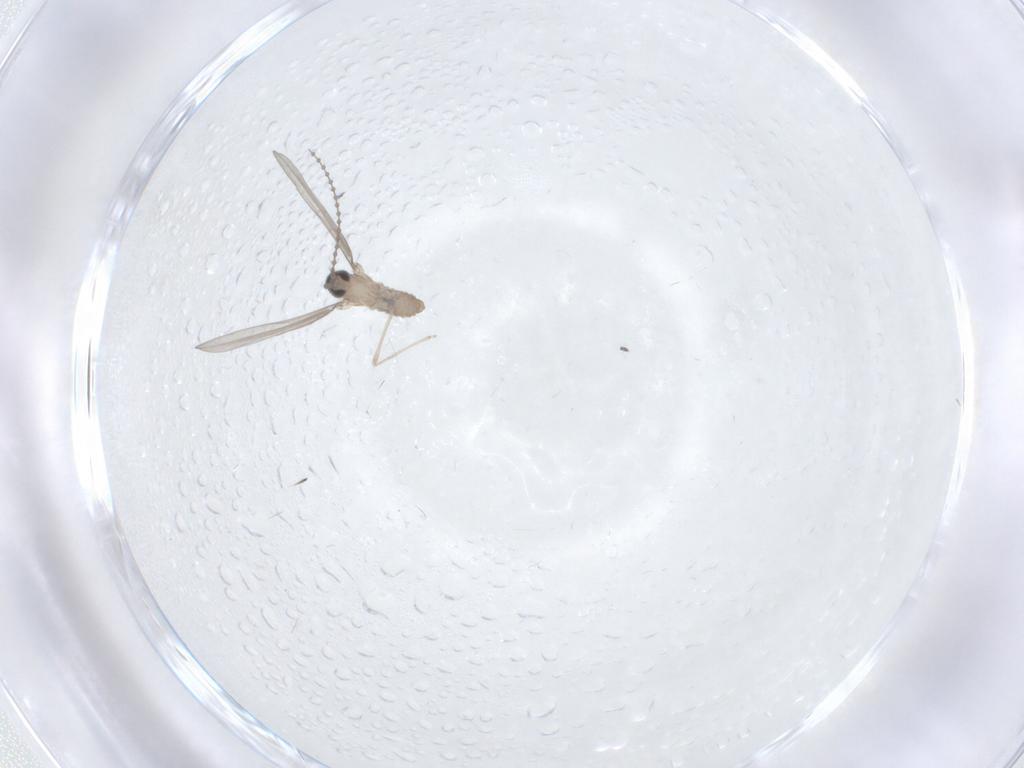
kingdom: Animalia
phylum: Arthropoda
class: Insecta
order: Diptera
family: Cecidomyiidae
